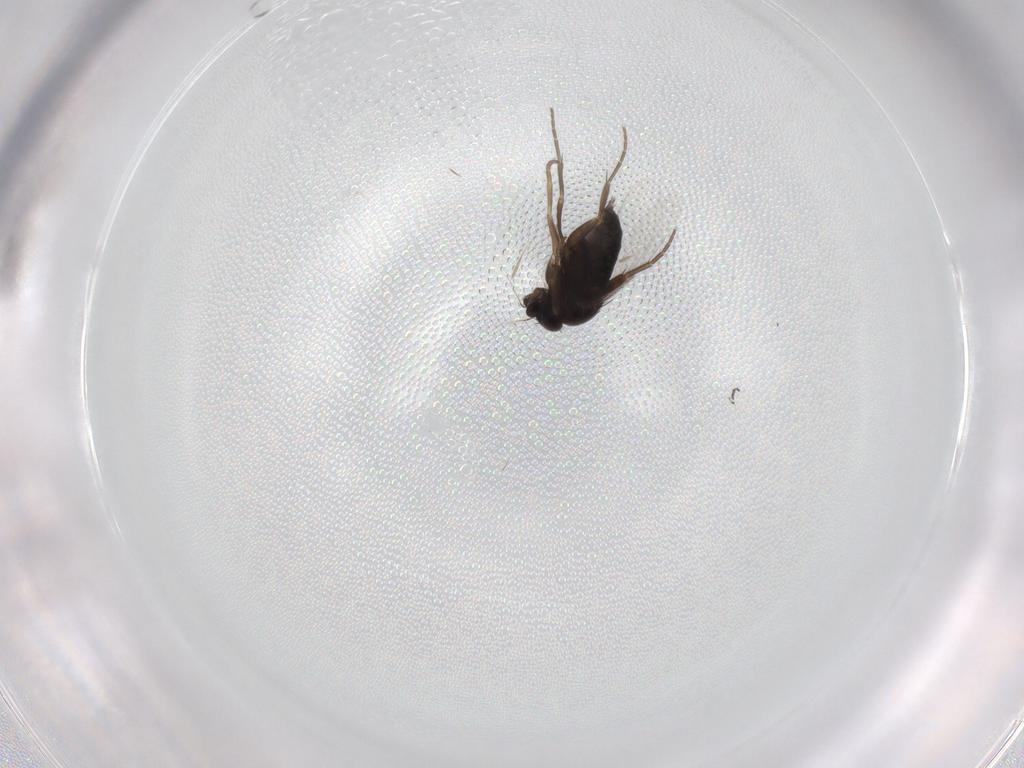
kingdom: Animalia
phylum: Arthropoda
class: Insecta
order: Diptera
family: Phoridae
